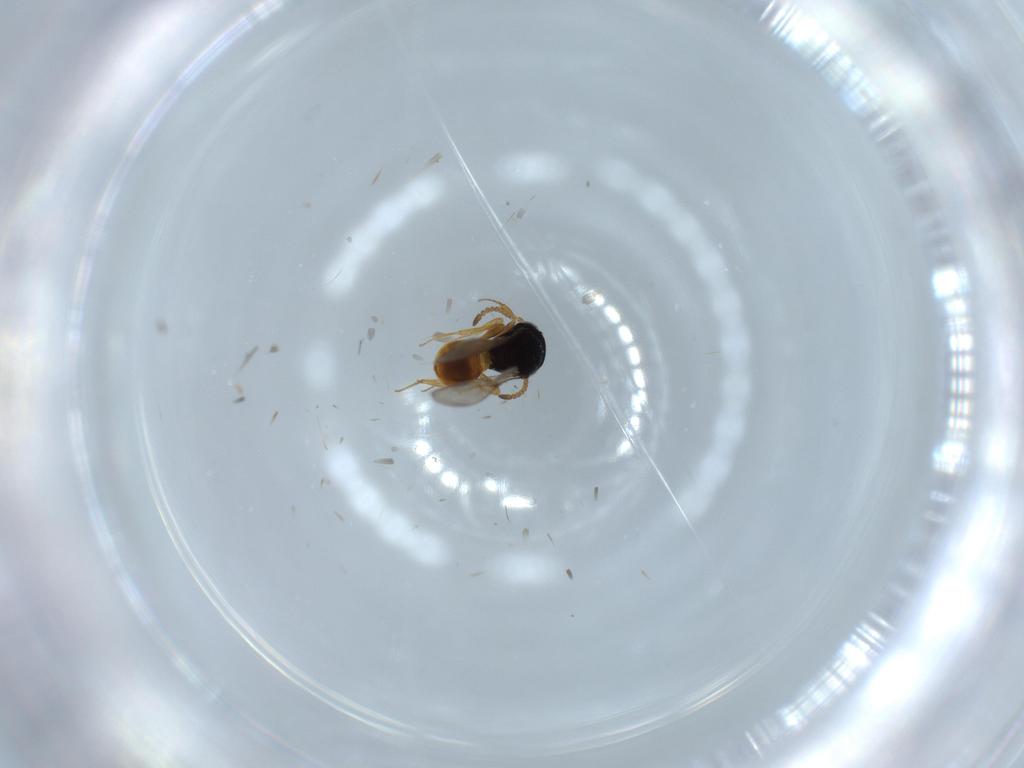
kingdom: Animalia
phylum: Arthropoda
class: Insecta
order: Hymenoptera
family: Scelionidae
